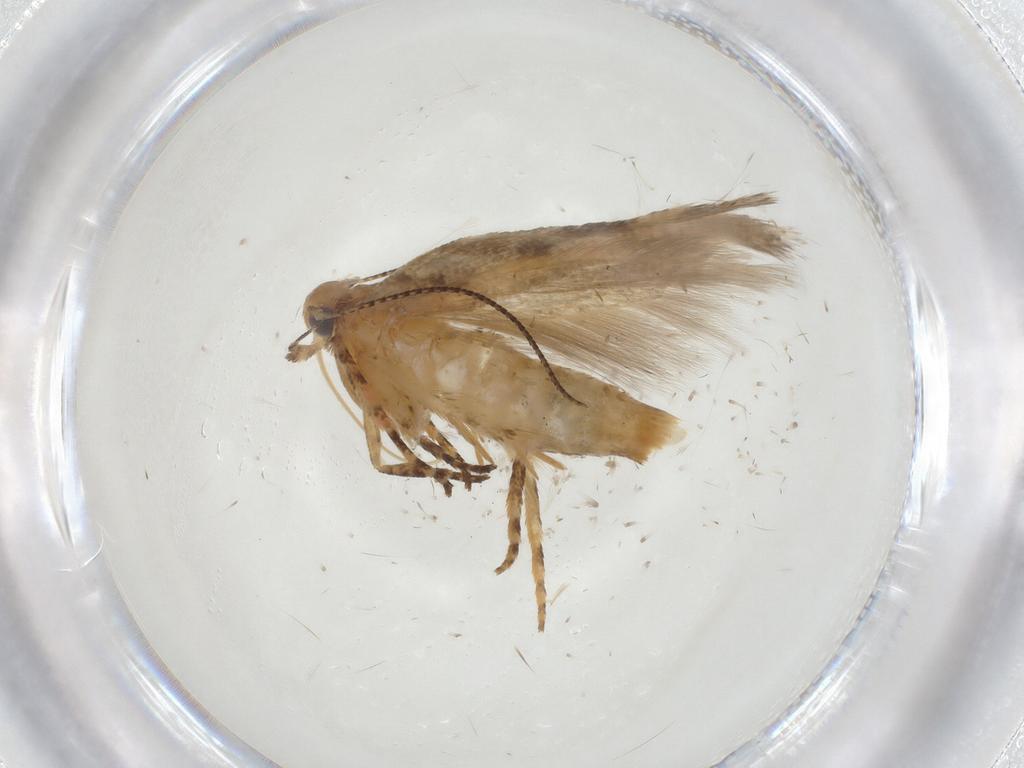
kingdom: Animalia
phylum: Arthropoda
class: Insecta
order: Lepidoptera
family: Gelechiidae
